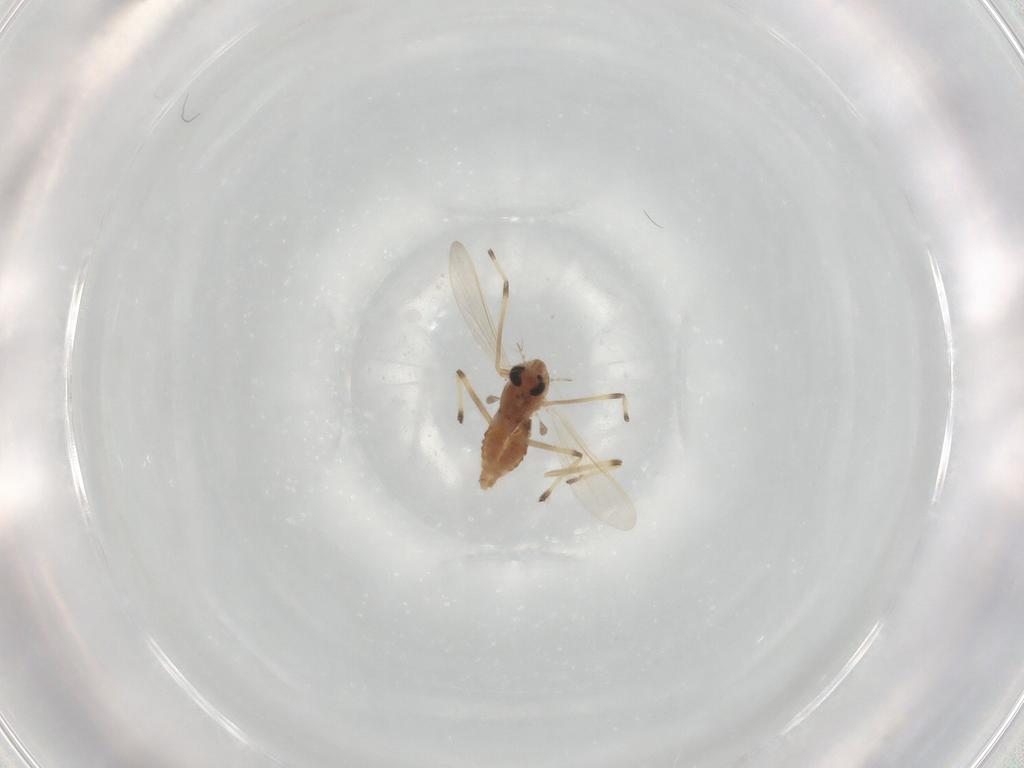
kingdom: Animalia
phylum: Arthropoda
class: Insecta
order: Diptera
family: Chironomidae
